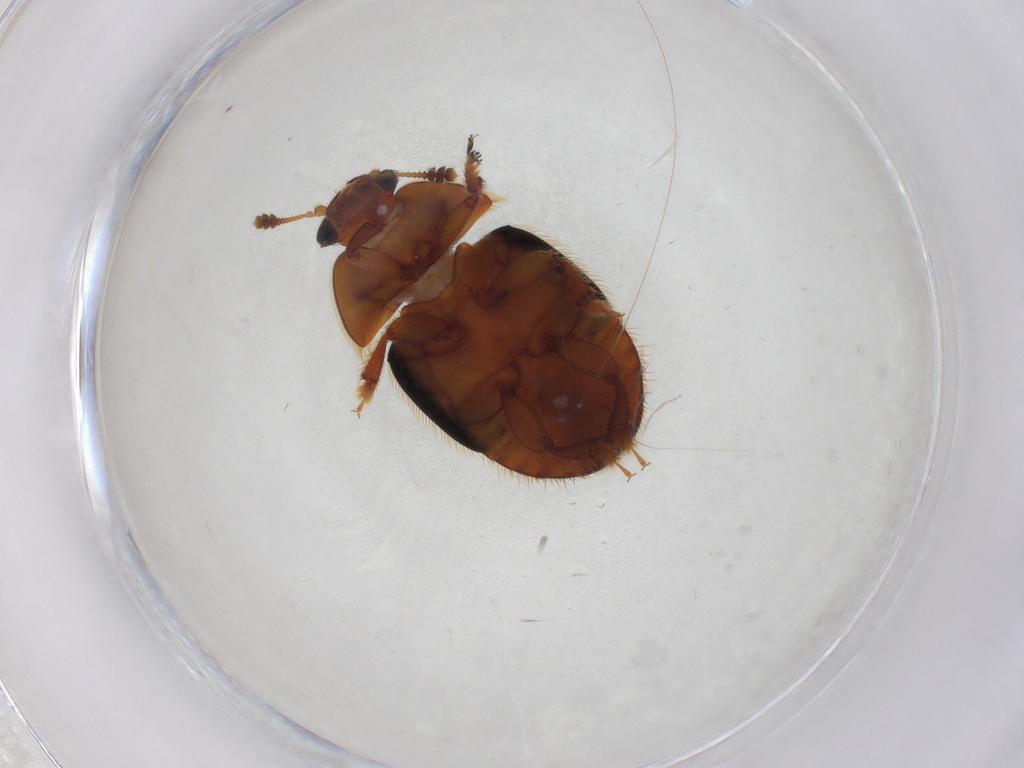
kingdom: Animalia
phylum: Arthropoda
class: Insecta
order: Coleoptera
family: Nitidulidae
